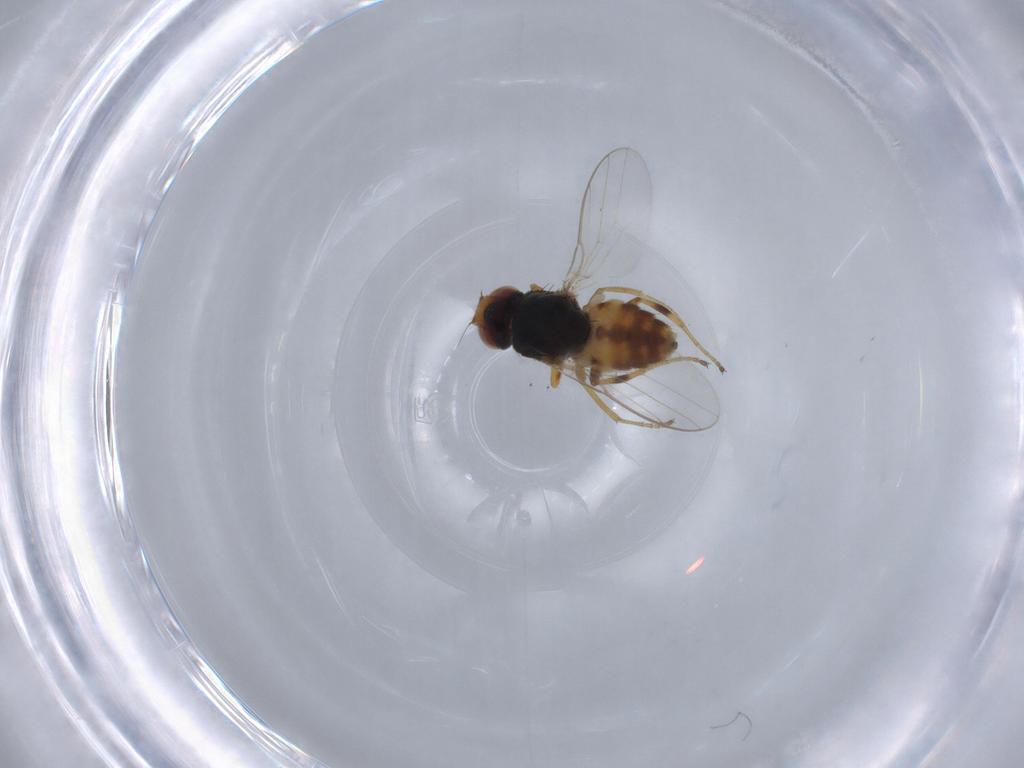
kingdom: Animalia
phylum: Arthropoda
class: Insecta
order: Diptera
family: Chloropidae
